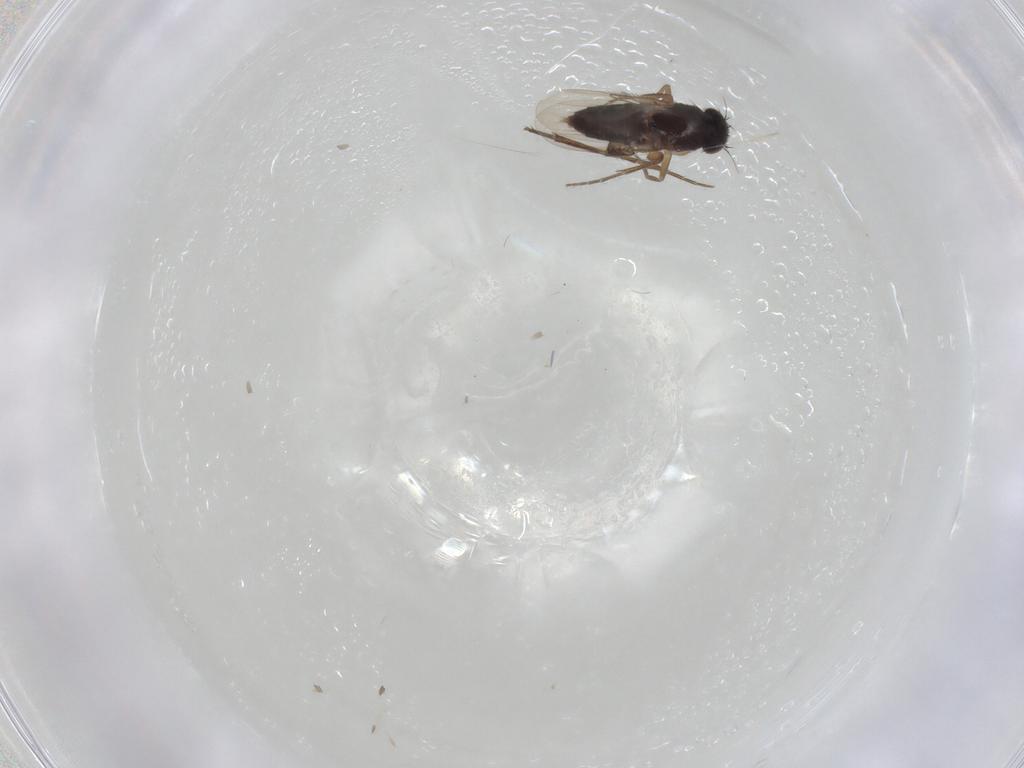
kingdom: Animalia
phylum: Arthropoda
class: Insecta
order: Diptera
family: Phoridae
